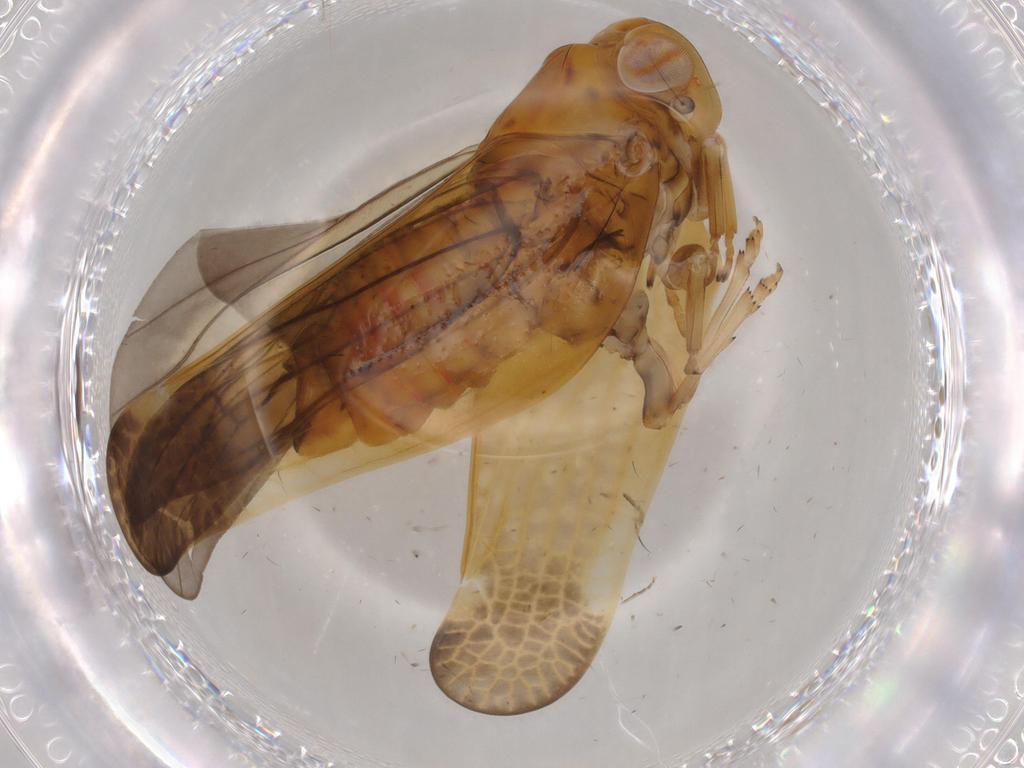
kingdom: Animalia
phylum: Arthropoda
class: Insecta
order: Hemiptera
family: Nogodinidae
